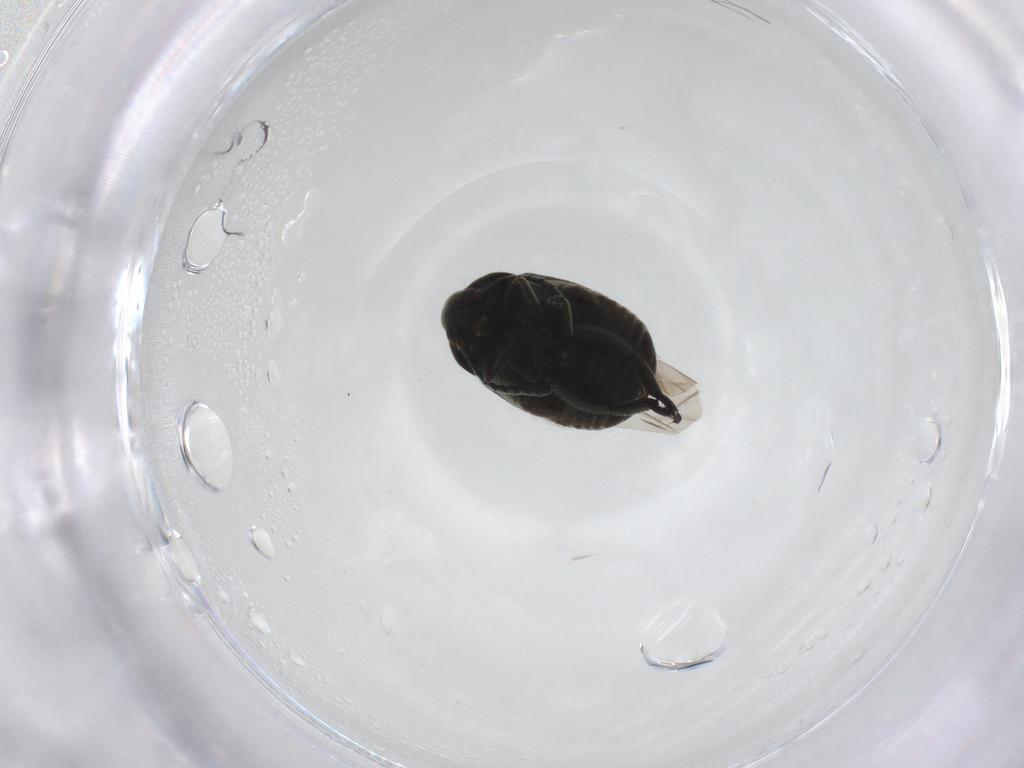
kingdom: Animalia
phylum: Arthropoda
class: Insecta
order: Coleoptera
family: Chrysomelidae
